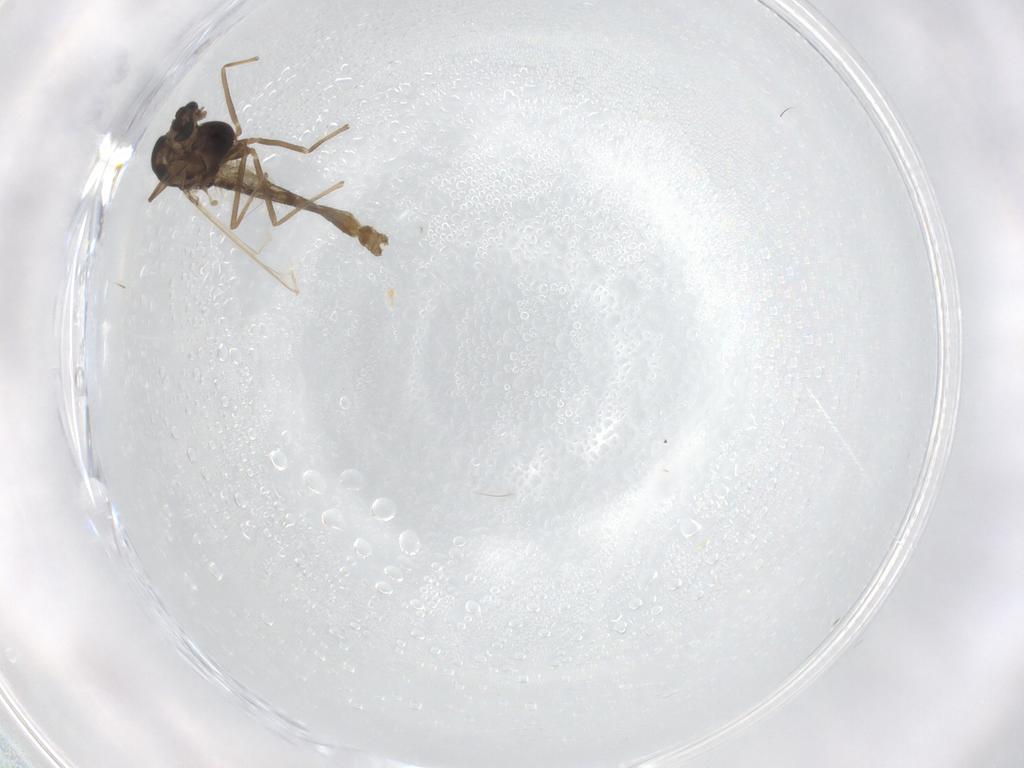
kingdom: Animalia
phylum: Arthropoda
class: Insecta
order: Diptera
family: Chironomidae
